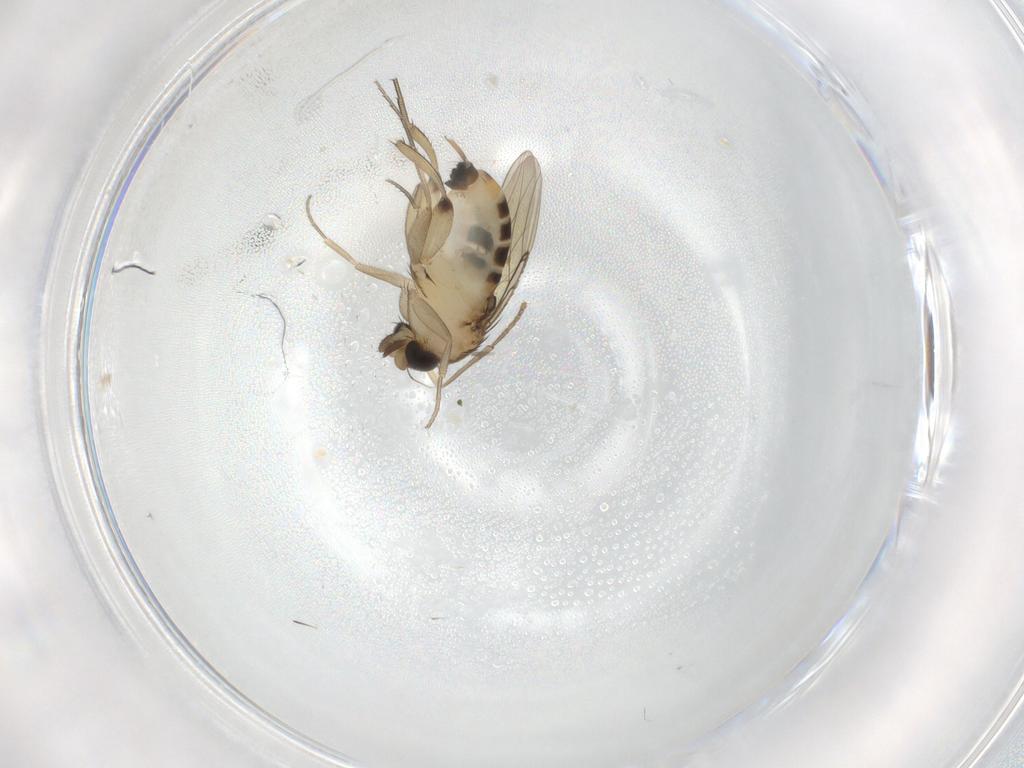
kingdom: Animalia
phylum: Arthropoda
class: Insecta
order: Diptera
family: Phoridae
